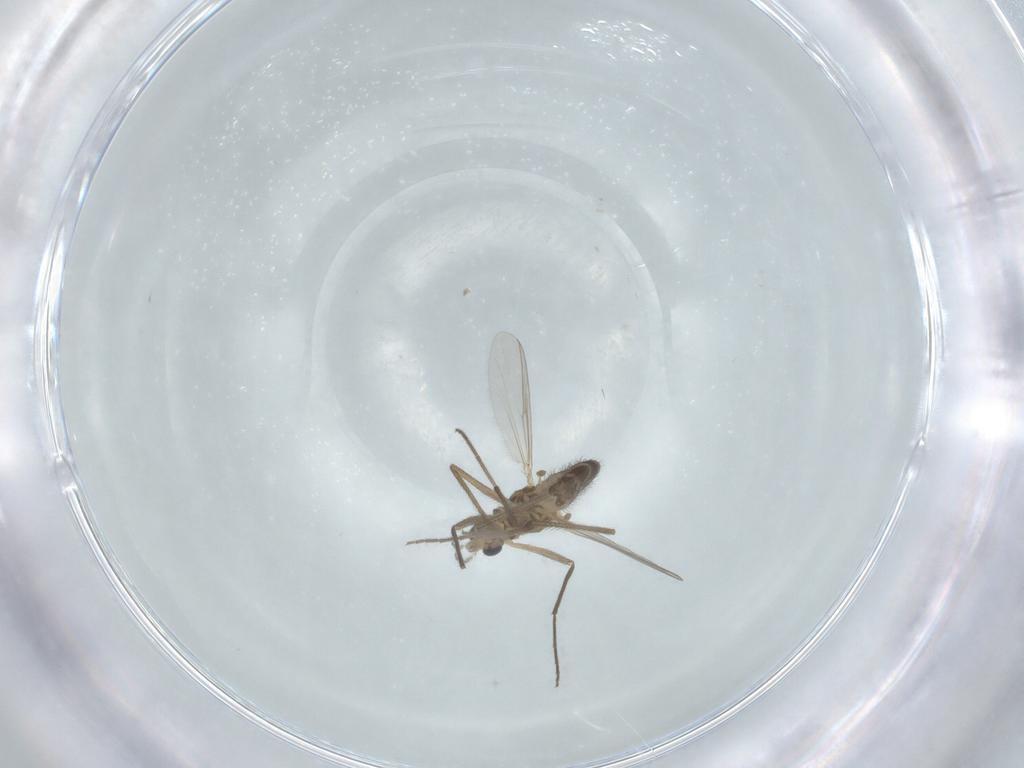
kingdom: Animalia
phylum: Arthropoda
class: Insecta
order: Diptera
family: Chironomidae
